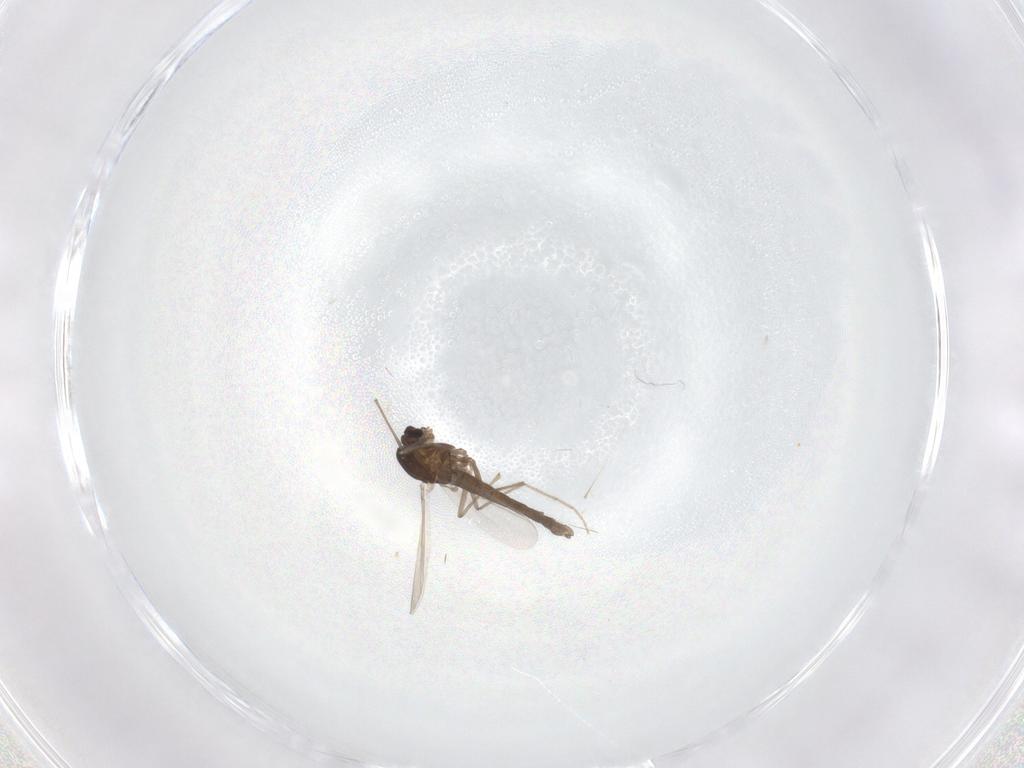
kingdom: Animalia
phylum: Arthropoda
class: Insecta
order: Diptera
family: Chironomidae
